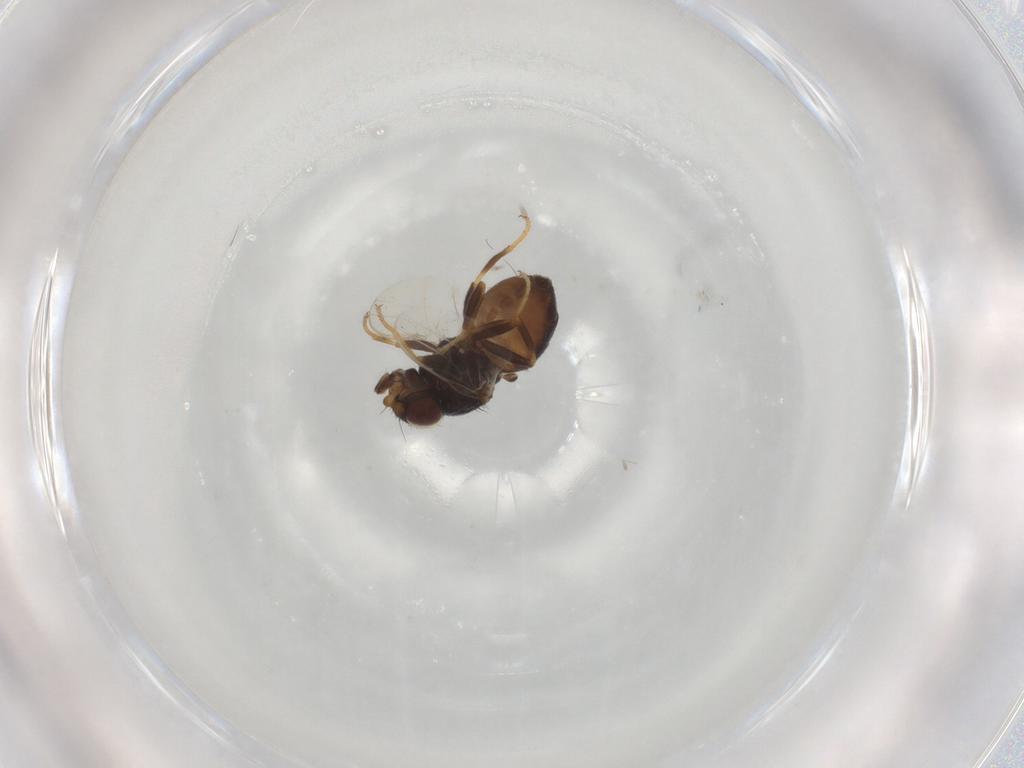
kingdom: Animalia
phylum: Arthropoda
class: Insecta
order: Diptera
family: Chloropidae
